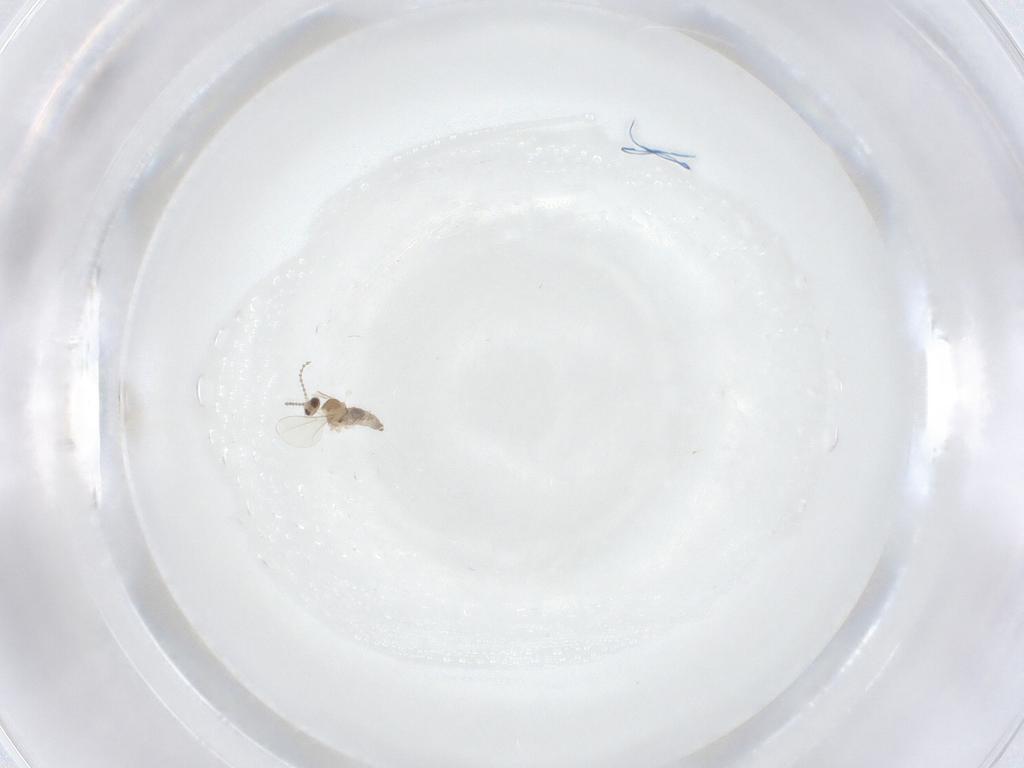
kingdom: Animalia
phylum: Arthropoda
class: Insecta
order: Diptera
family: Cecidomyiidae
